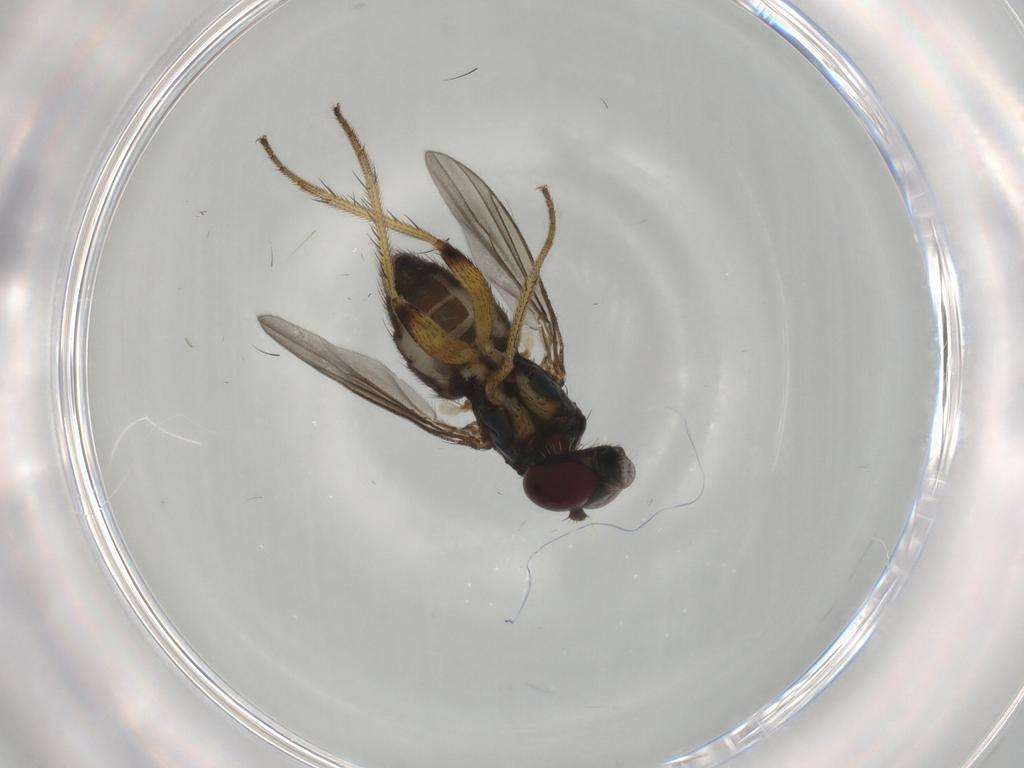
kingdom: Animalia
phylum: Arthropoda
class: Insecta
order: Diptera
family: Dolichopodidae
